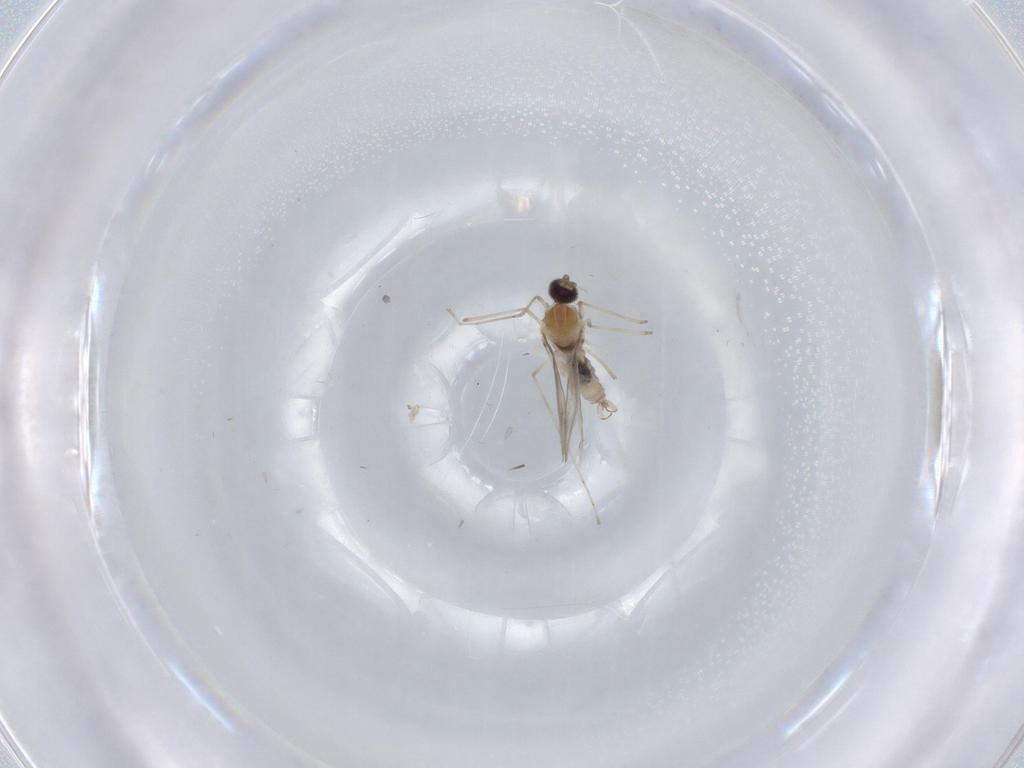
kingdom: Animalia
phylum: Arthropoda
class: Insecta
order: Diptera
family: Cecidomyiidae
